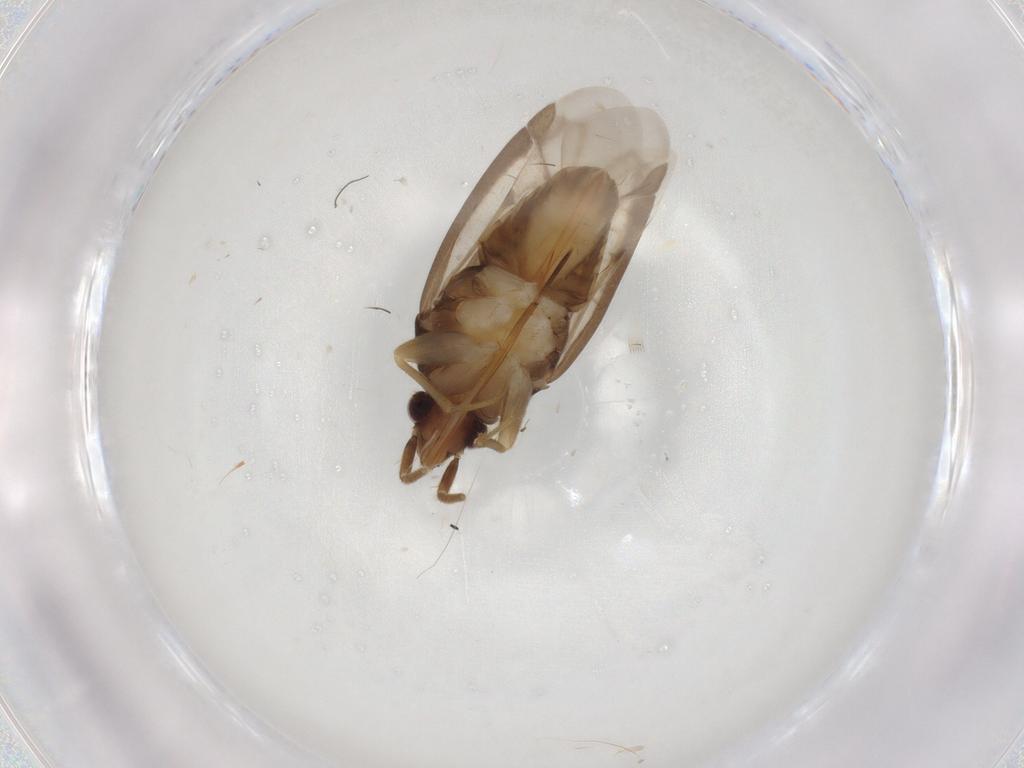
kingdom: Animalia
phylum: Arthropoda
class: Insecta
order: Hemiptera
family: Miridae
